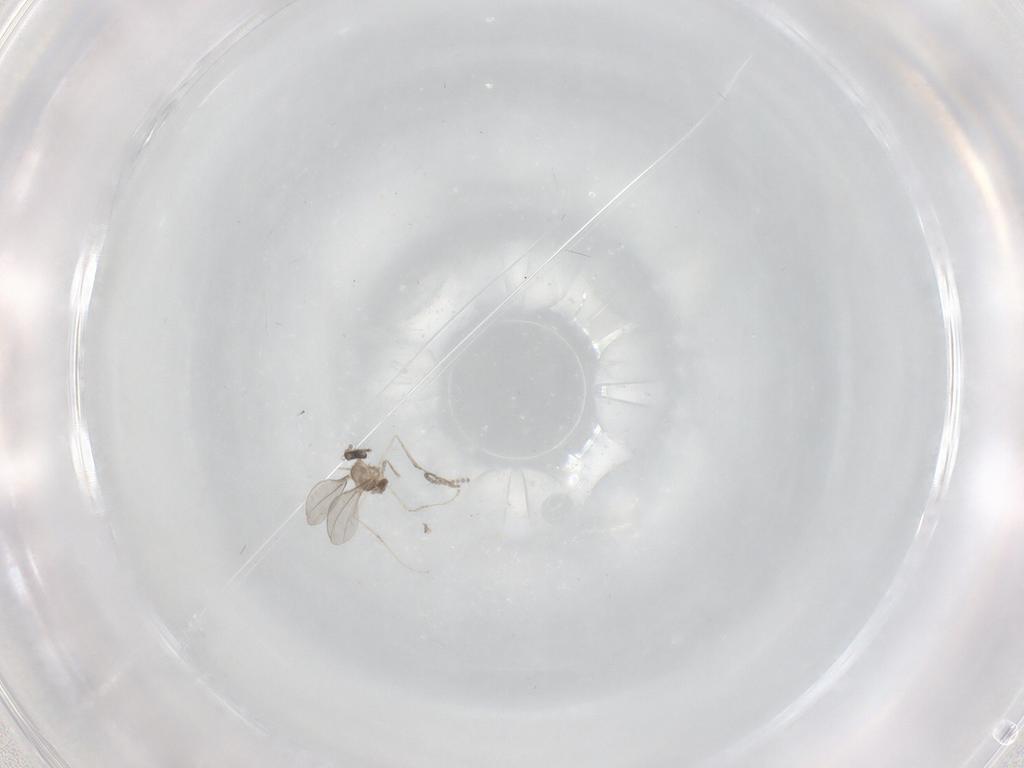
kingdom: Animalia
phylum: Arthropoda
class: Insecta
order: Diptera
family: Cecidomyiidae
